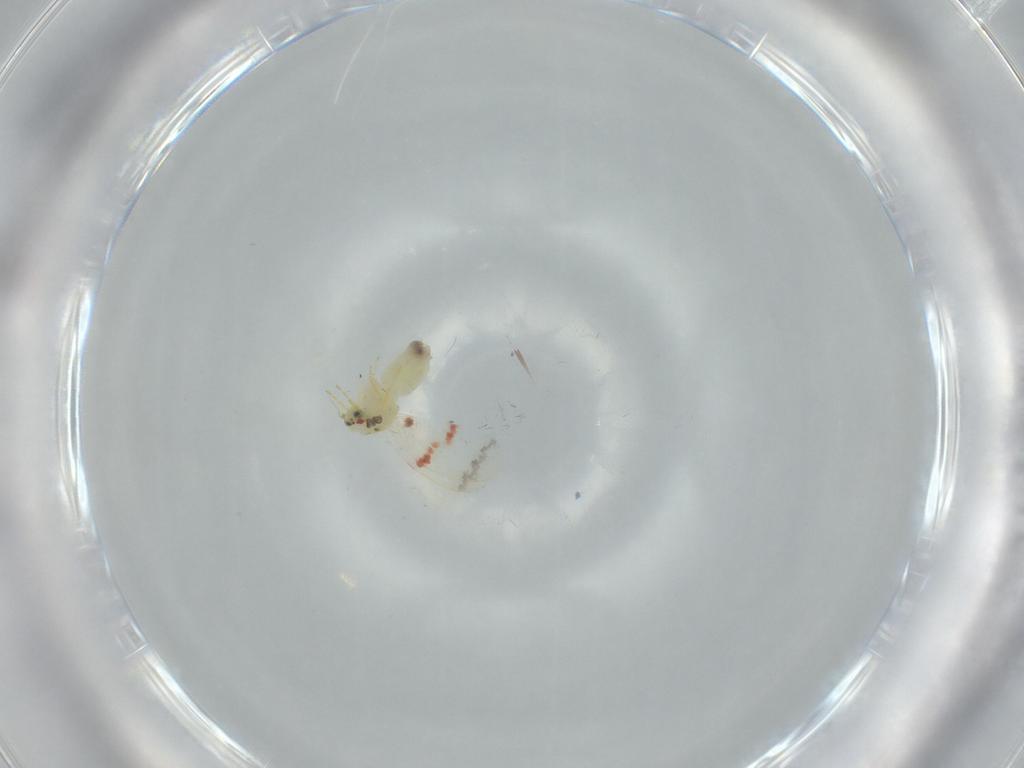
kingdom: Animalia
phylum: Arthropoda
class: Insecta
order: Hemiptera
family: Aleyrodidae
